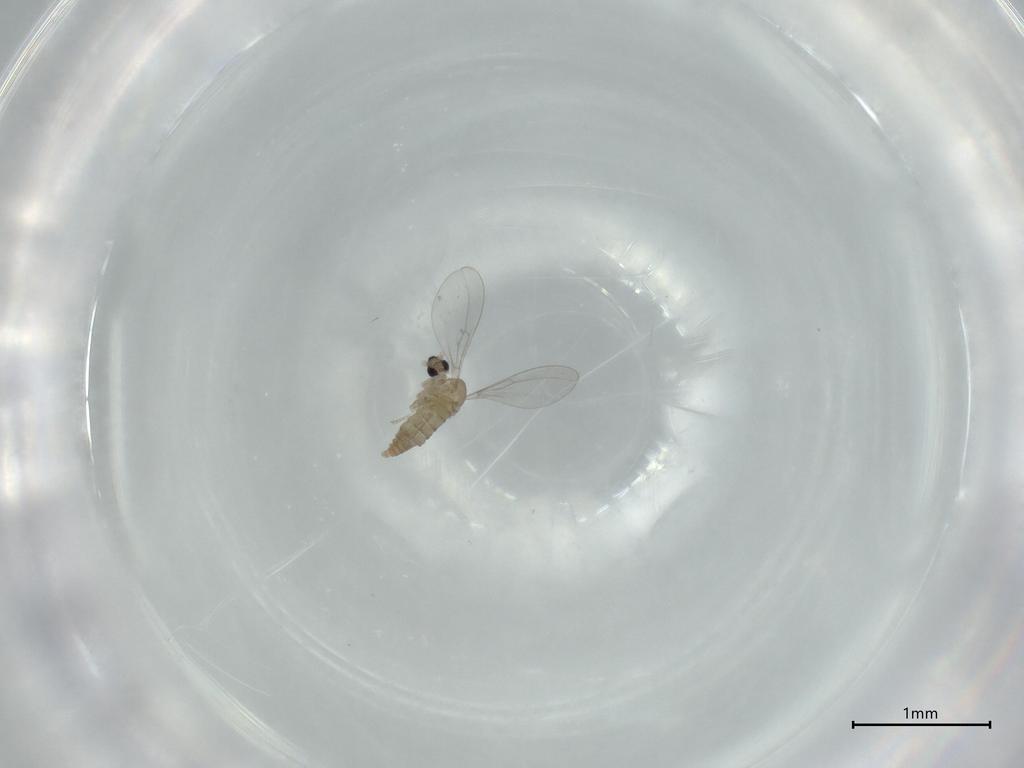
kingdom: Animalia
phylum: Arthropoda
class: Insecta
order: Diptera
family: Cecidomyiidae
